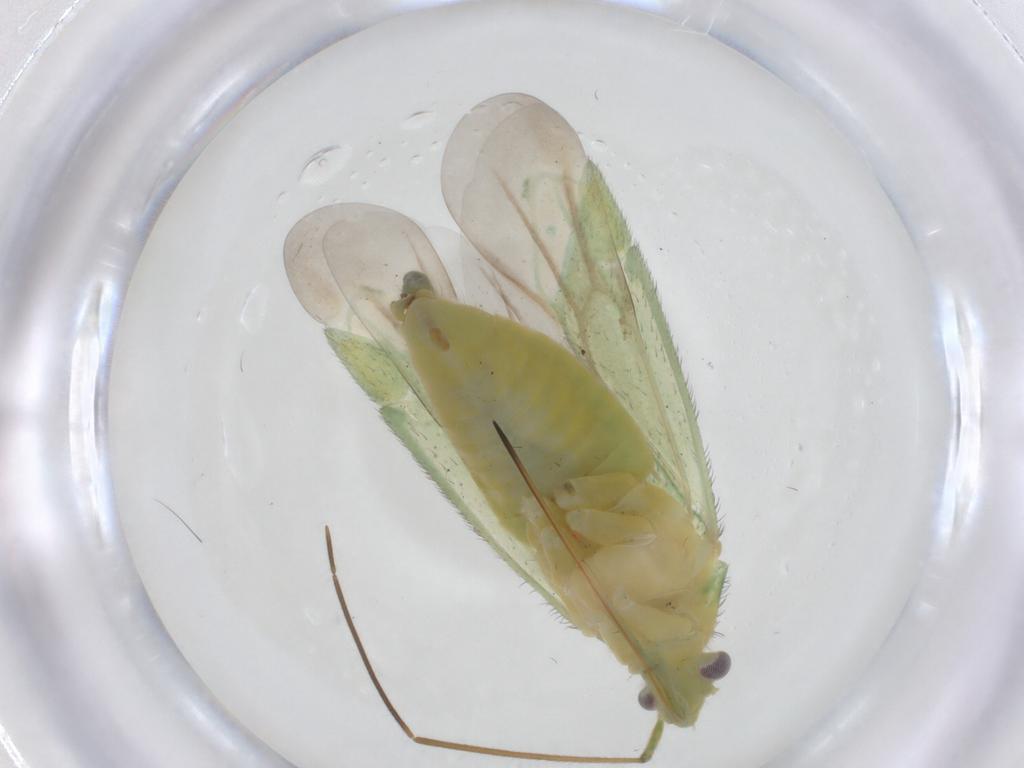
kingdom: Animalia
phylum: Arthropoda
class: Insecta
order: Hemiptera
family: Miridae
